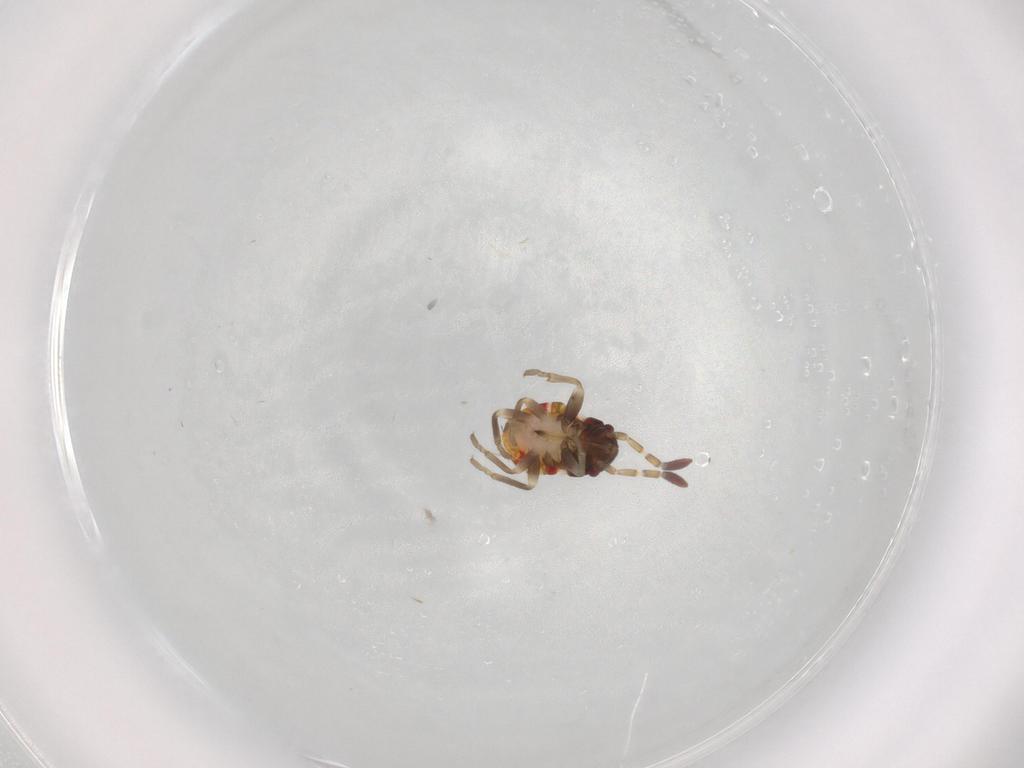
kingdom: Animalia
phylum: Arthropoda
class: Insecta
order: Hemiptera
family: Rhyparochromidae
